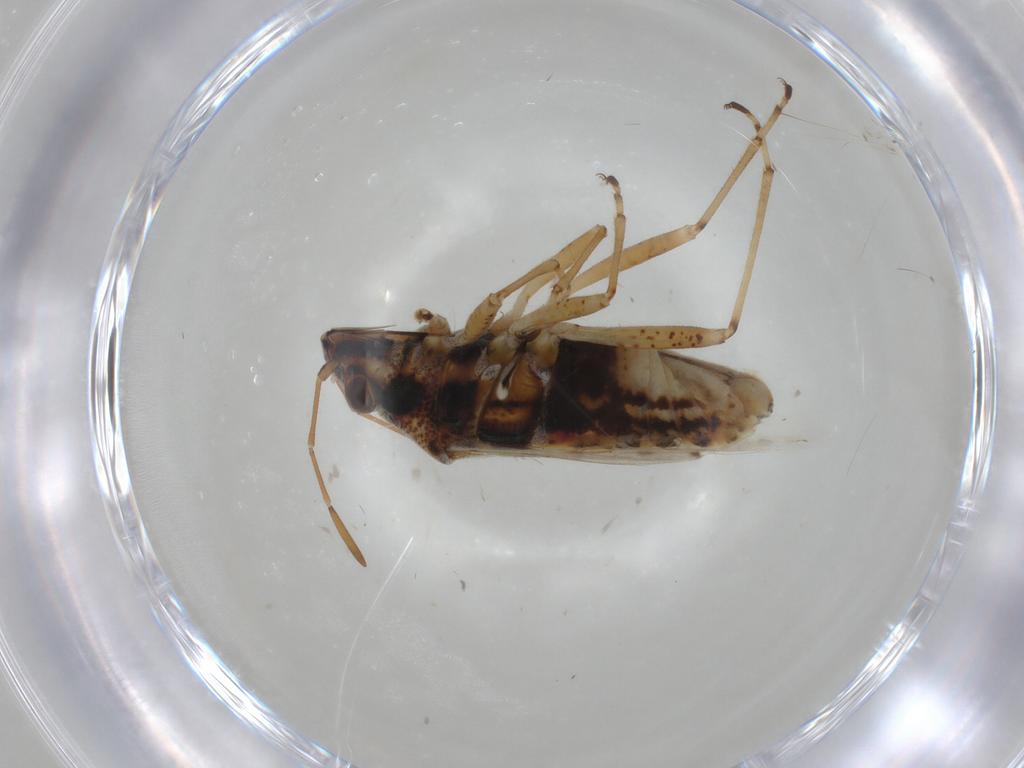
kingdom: Animalia
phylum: Arthropoda
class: Insecta
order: Hemiptera
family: Lygaeidae
